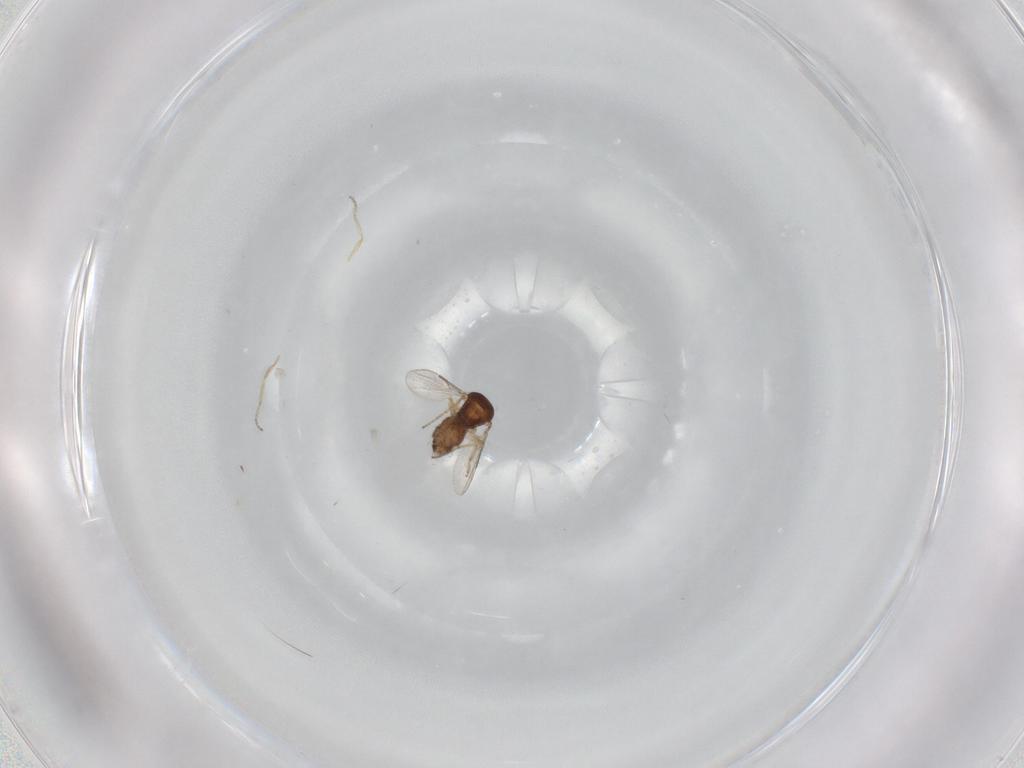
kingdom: Animalia
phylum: Arthropoda
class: Insecta
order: Diptera
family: Ceratopogonidae
